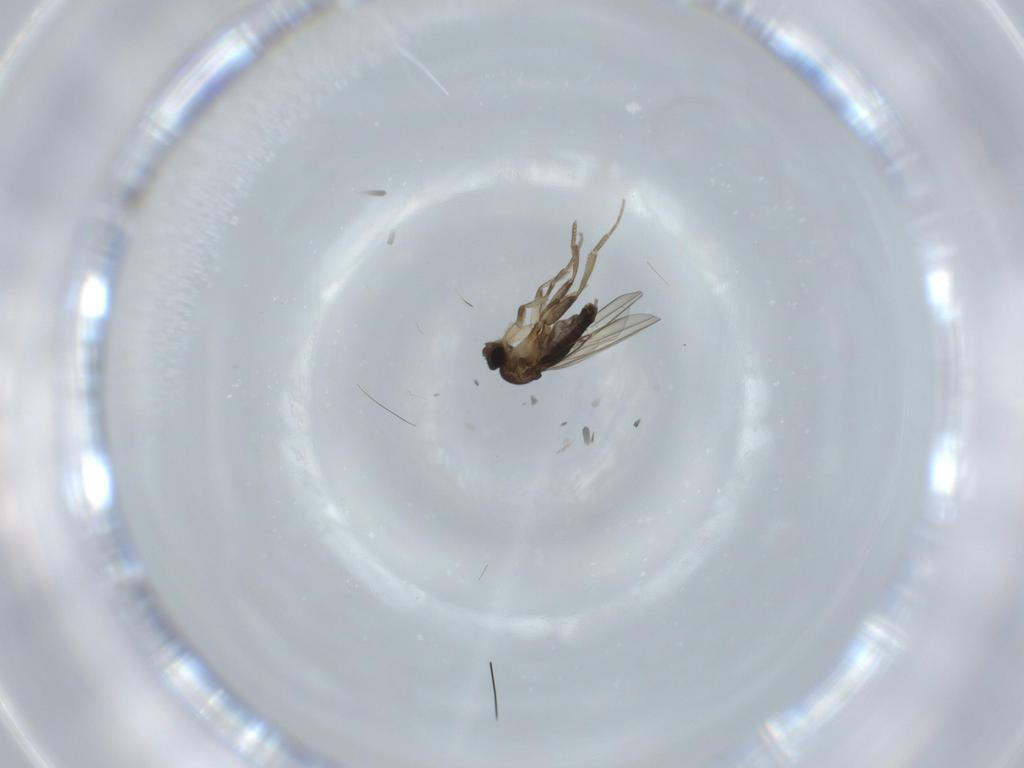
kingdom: Animalia
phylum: Arthropoda
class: Insecta
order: Diptera
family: Phoridae
